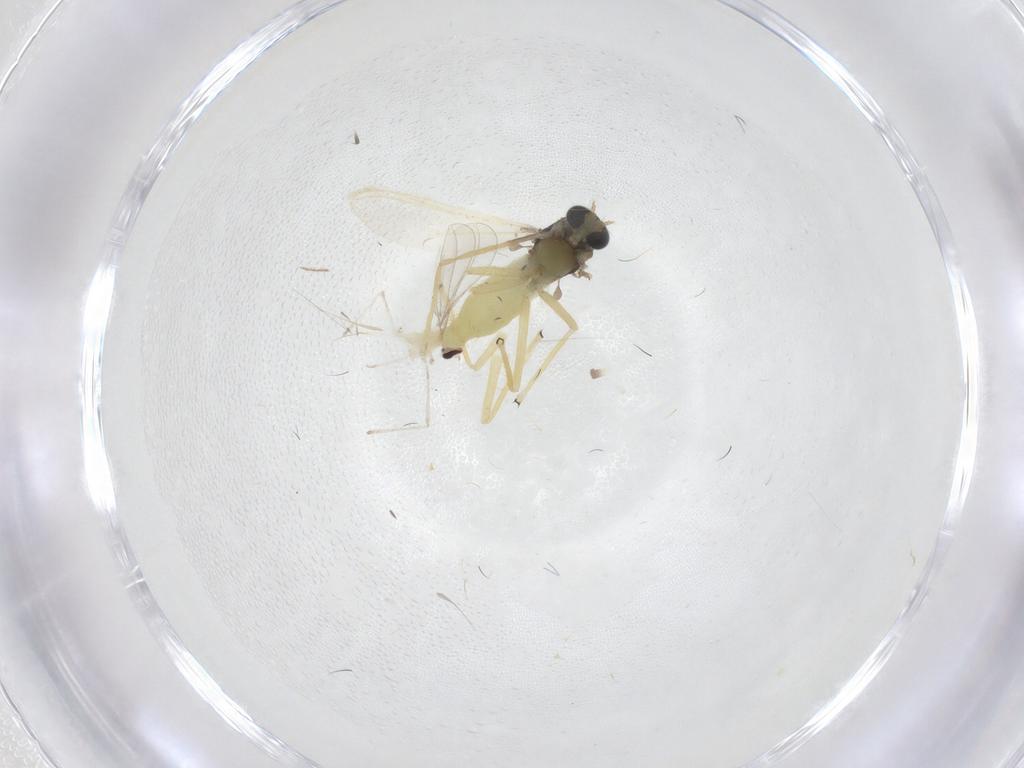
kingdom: Animalia
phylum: Arthropoda
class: Insecta
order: Diptera
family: Chironomidae
